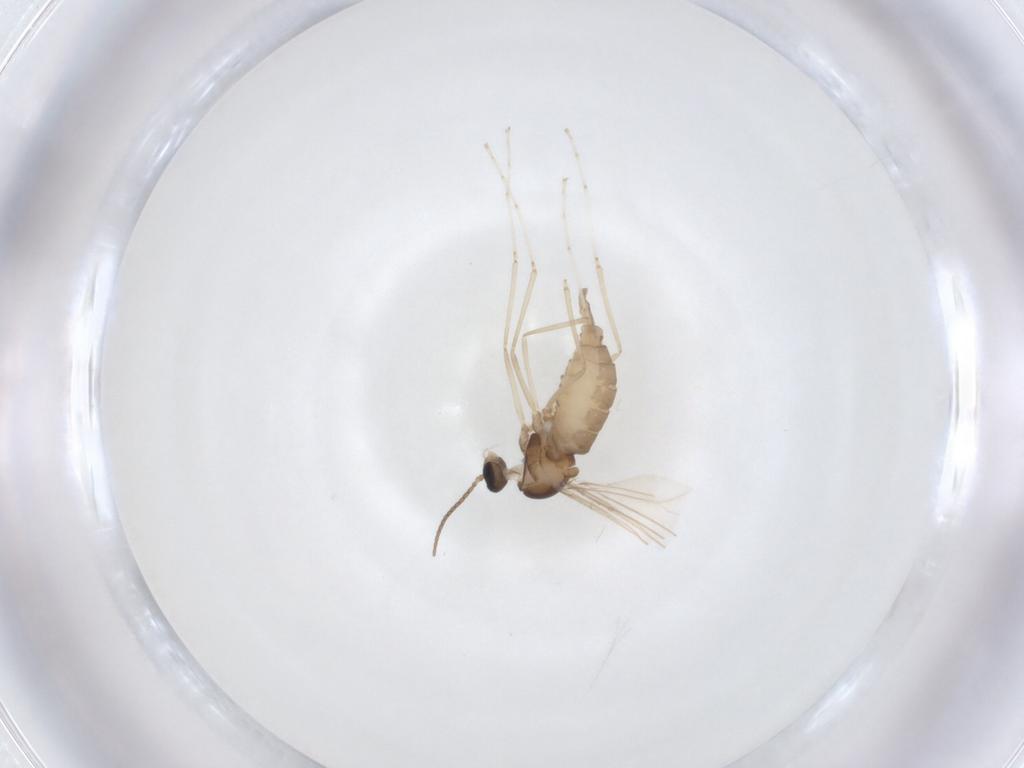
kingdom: Animalia
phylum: Arthropoda
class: Insecta
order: Diptera
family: Cecidomyiidae
